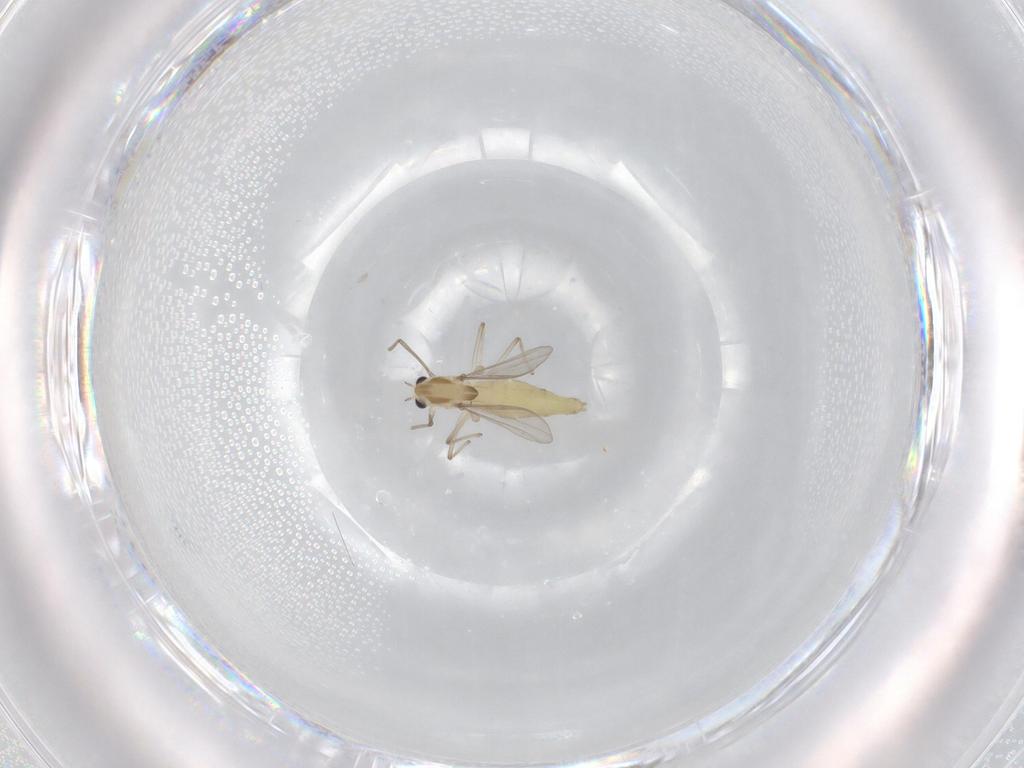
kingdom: Animalia
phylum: Arthropoda
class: Insecta
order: Diptera
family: Chironomidae
